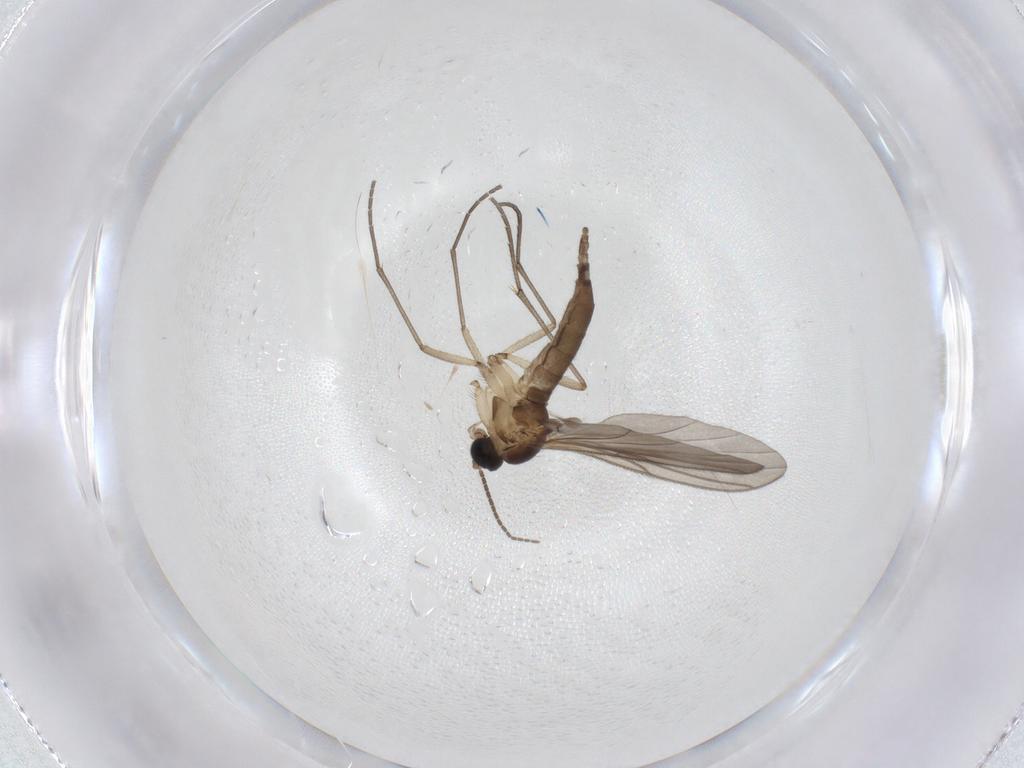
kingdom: Animalia
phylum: Arthropoda
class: Insecta
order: Diptera
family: Sciaridae
